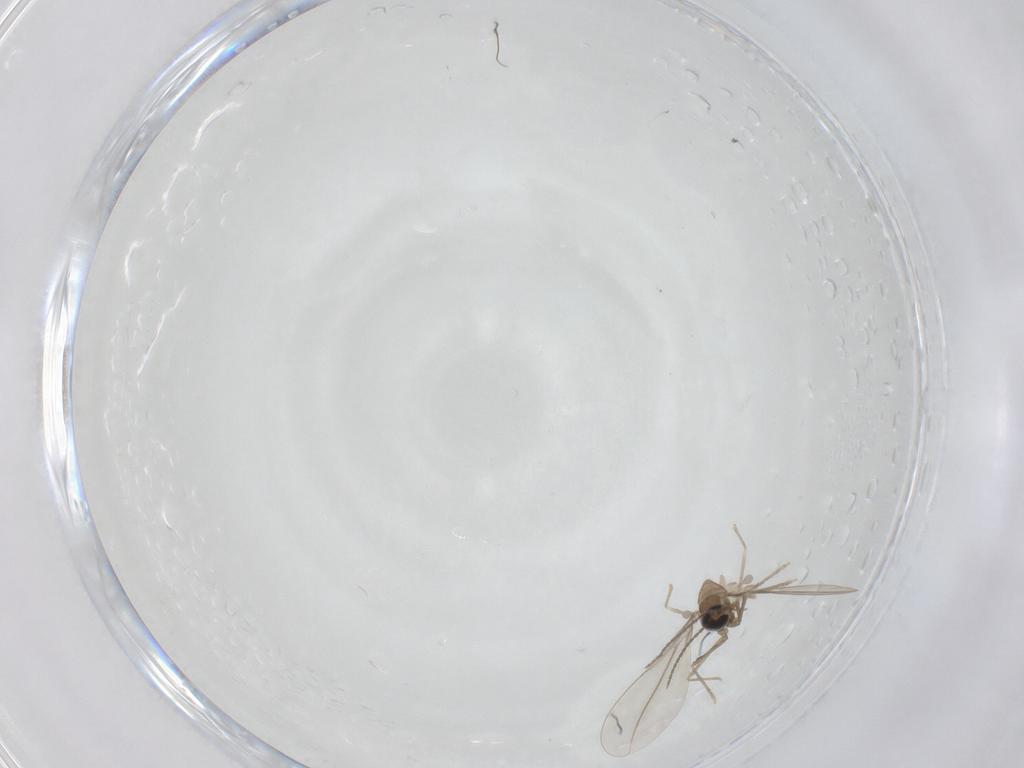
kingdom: Animalia
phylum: Arthropoda
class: Insecta
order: Diptera
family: Cecidomyiidae
